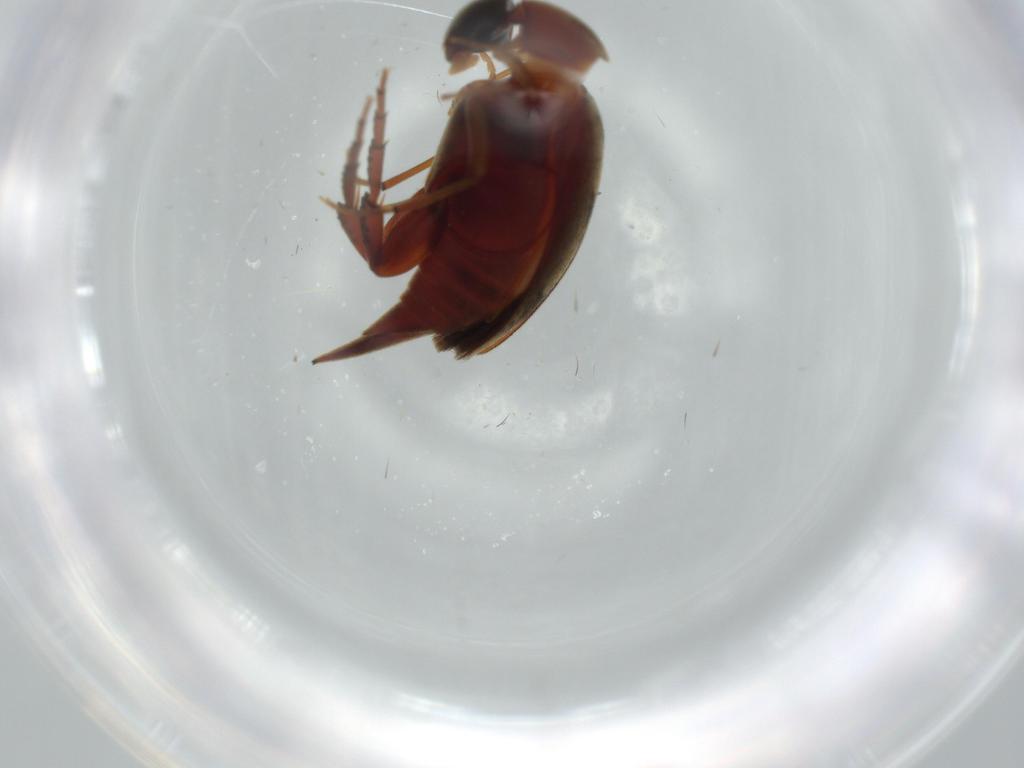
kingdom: Animalia
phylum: Arthropoda
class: Insecta
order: Coleoptera
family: Mordellidae
